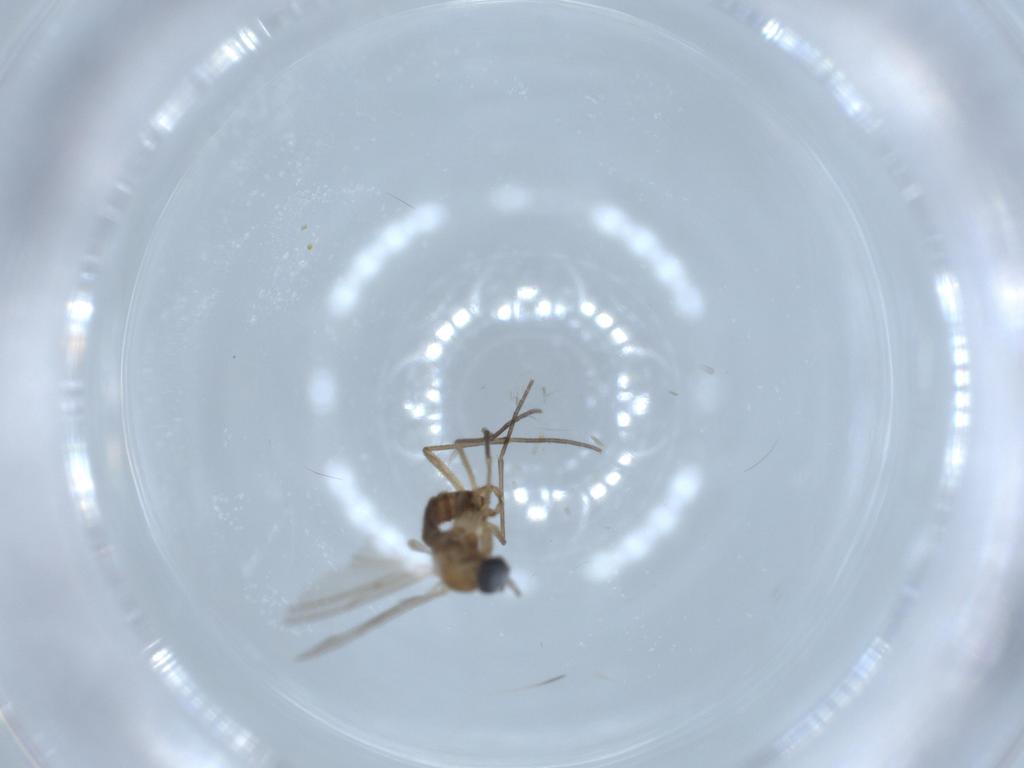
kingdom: Animalia
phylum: Arthropoda
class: Insecta
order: Diptera
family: Sciaridae
